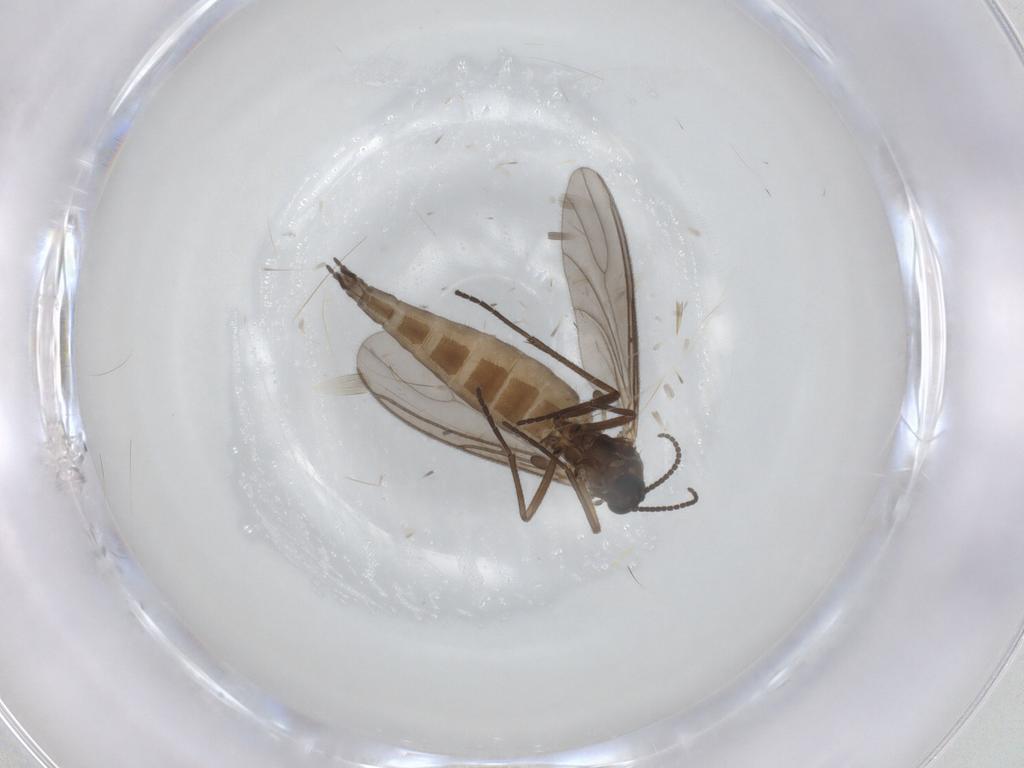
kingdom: Animalia
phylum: Arthropoda
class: Insecta
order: Diptera
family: Sciaridae
